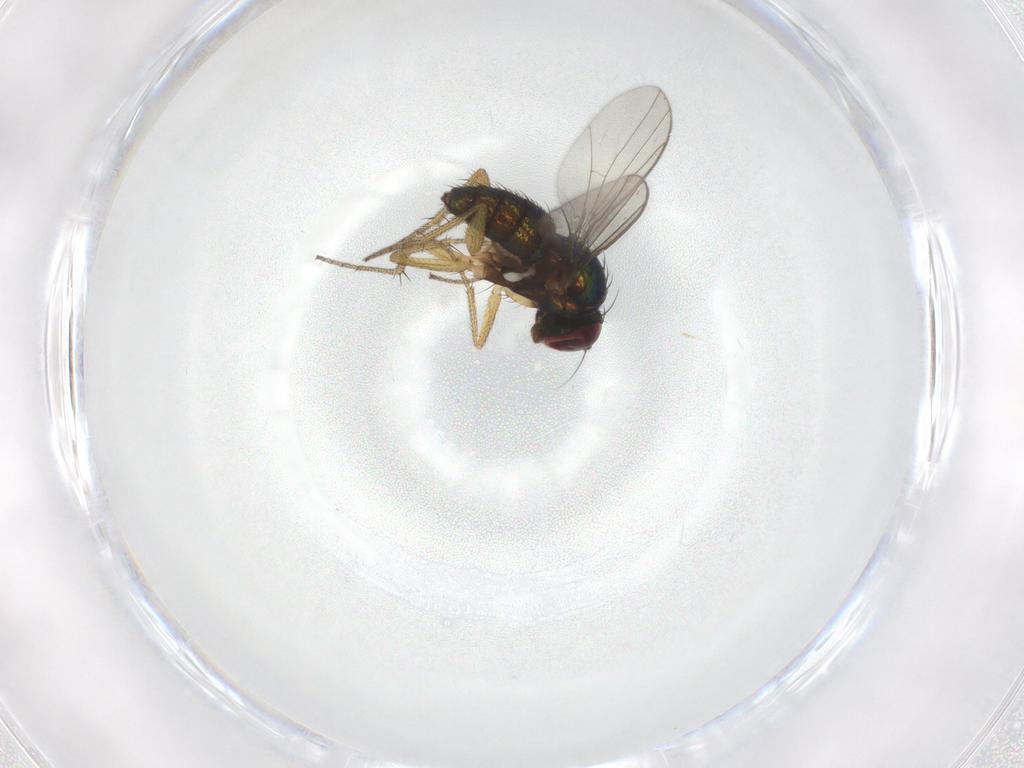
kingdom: Animalia
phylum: Arthropoda
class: Insecta
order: Diptera
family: Dolichopodidae
